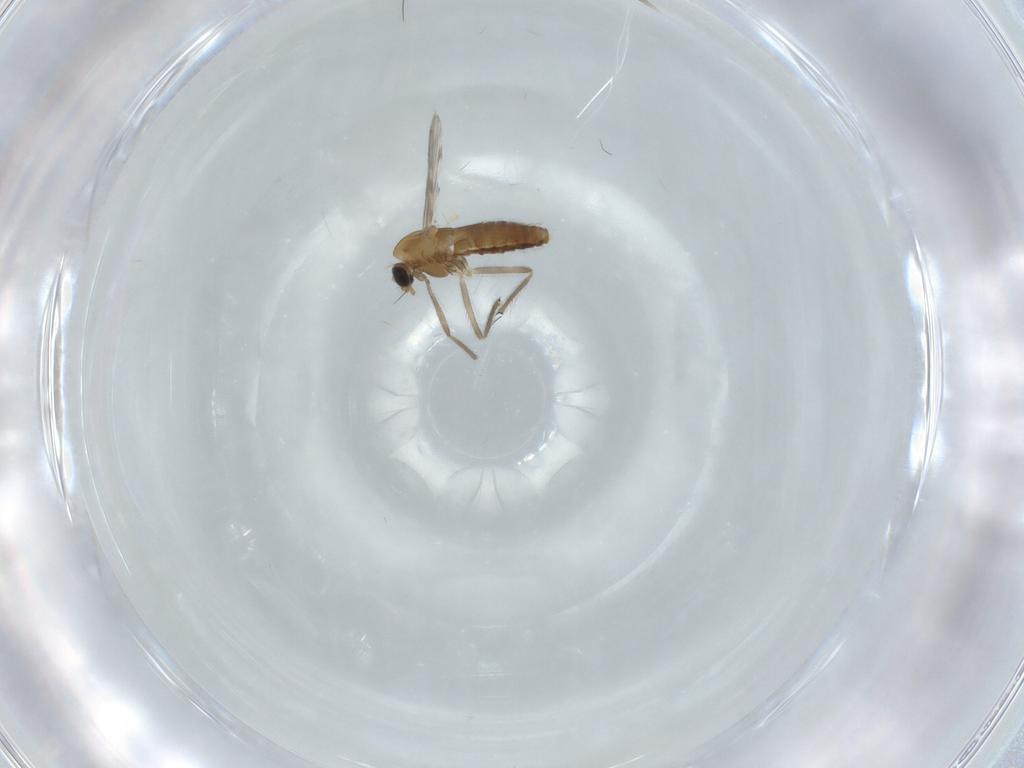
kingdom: Animalia
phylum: Arthropoda
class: Insecta
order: Diptera
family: Chironomidae
